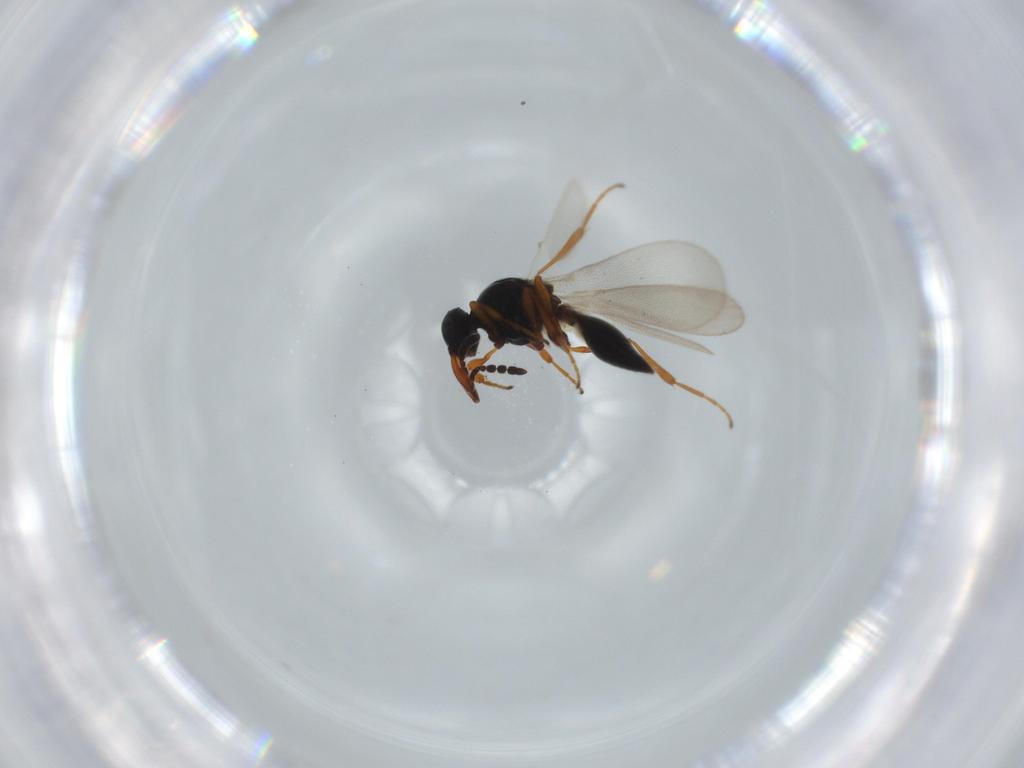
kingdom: Animalia
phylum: Arthropoda
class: Insecta
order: Hymenoptera
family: Platygastridae
